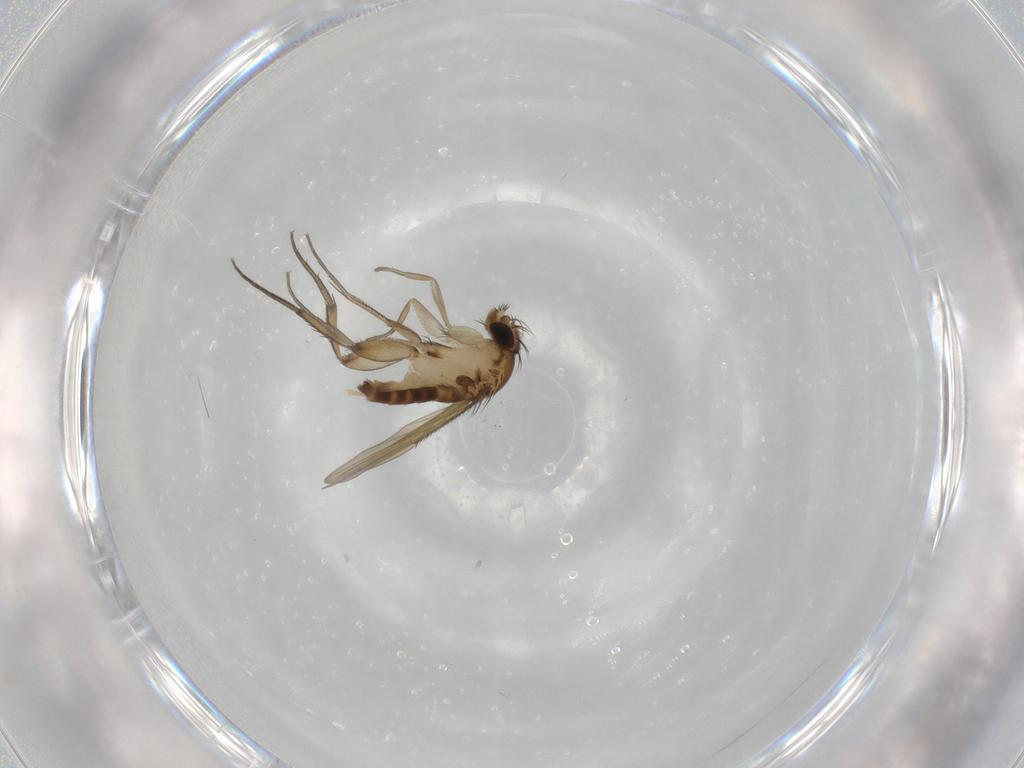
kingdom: Animalia
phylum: Arthropoda
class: Insecta
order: Diptera
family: Phoridae
